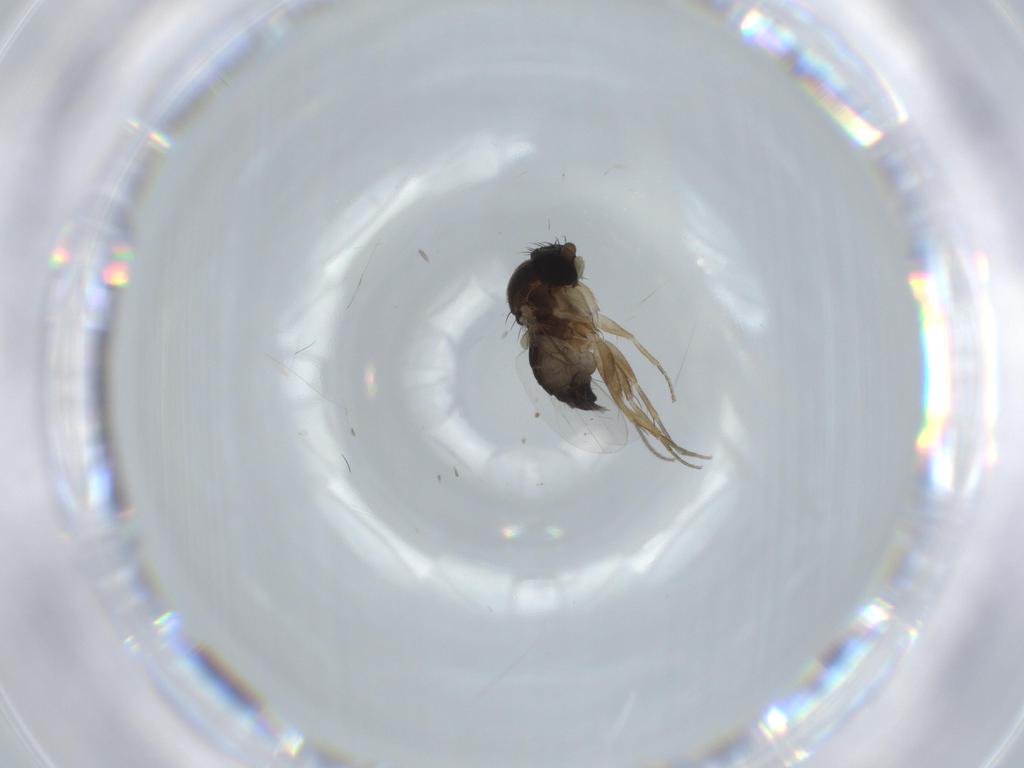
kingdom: Animalia
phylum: Arthropoda
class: Insecta
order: Diptera
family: Phoridae
